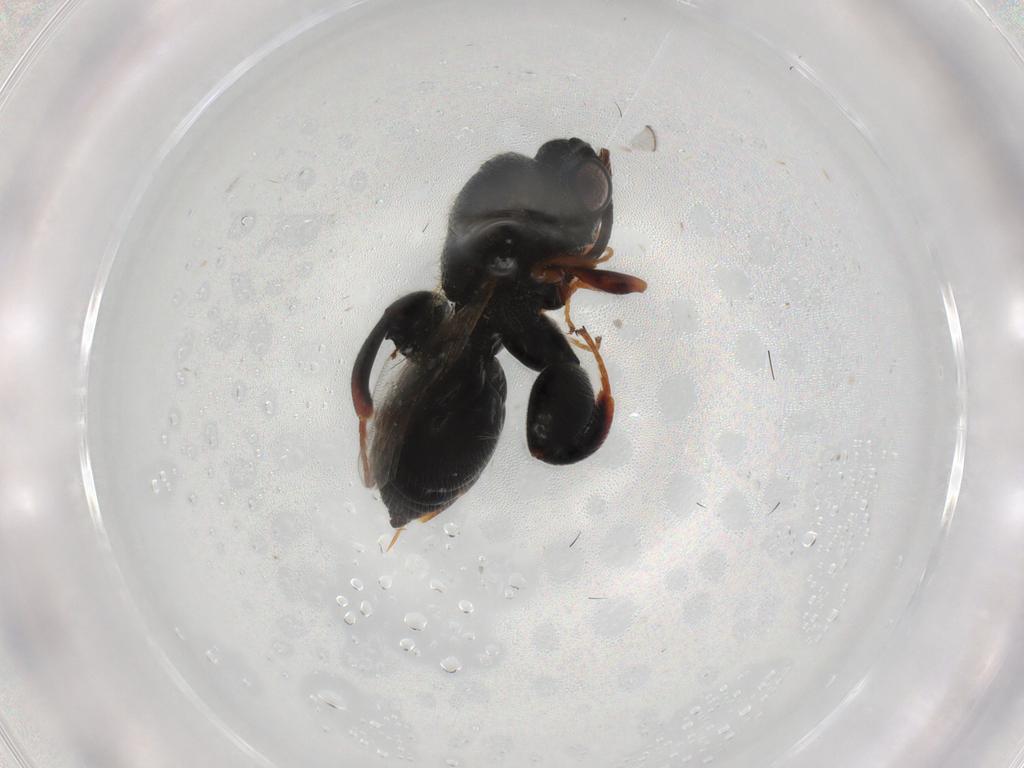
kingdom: Animalia
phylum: Arthropoda
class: Insecta
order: Hymenoptera
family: Chalcididae
